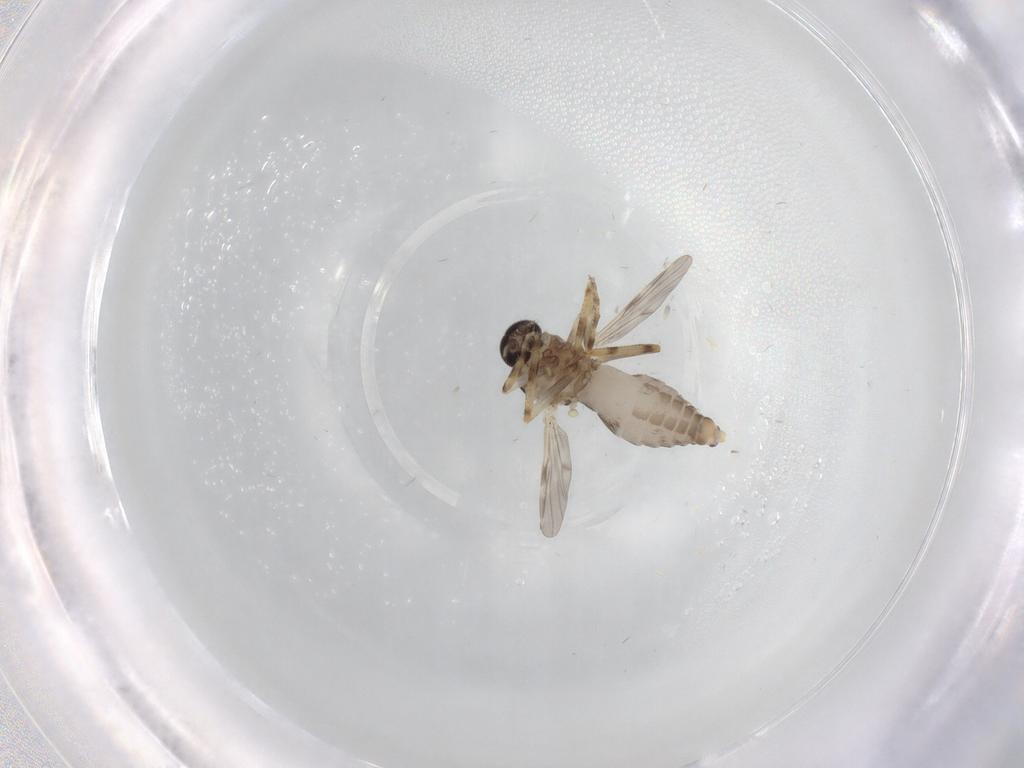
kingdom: Animalia
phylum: Arthropoda
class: Insecta
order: Diptera
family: Ceratopogonidae
